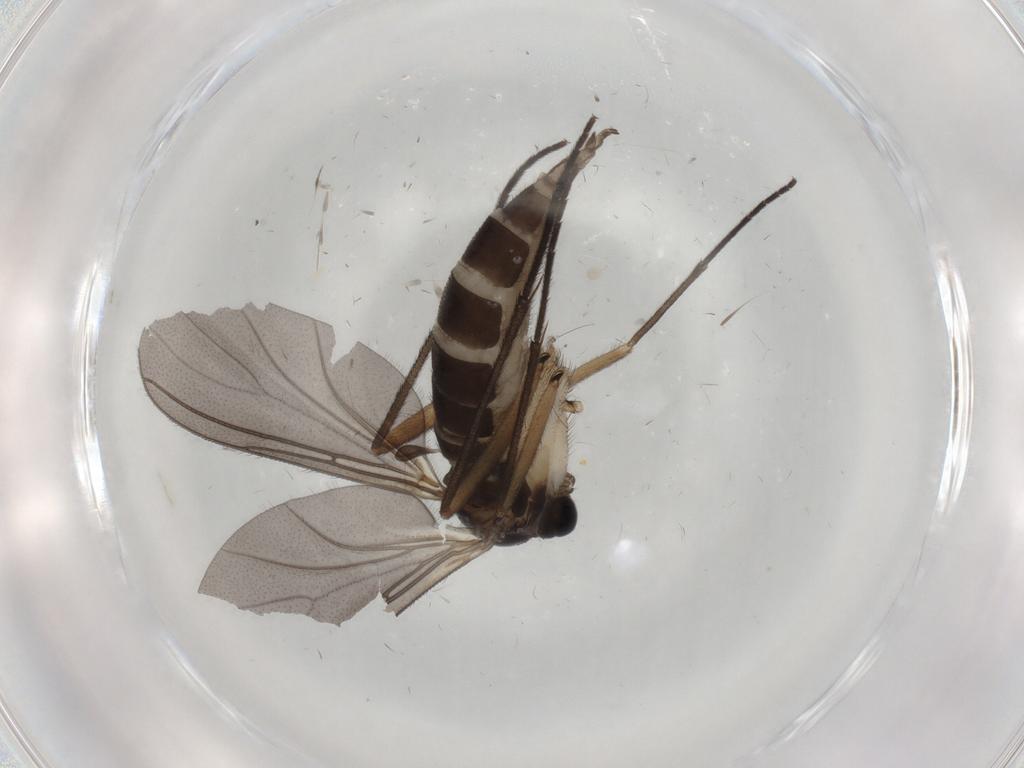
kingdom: Animalia
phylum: Arthropoda
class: Insecta
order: Diptera
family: Sciaridae
